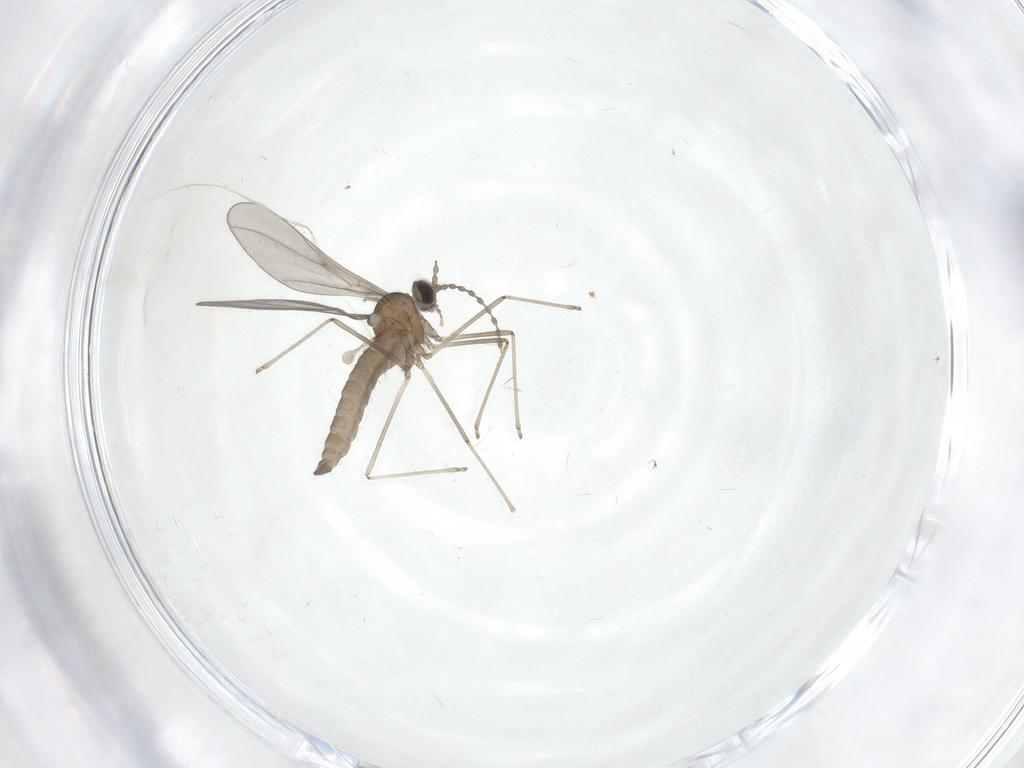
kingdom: Animalia
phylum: Arthropoda
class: Insecta
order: Diptera
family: Cecidomyiidae
